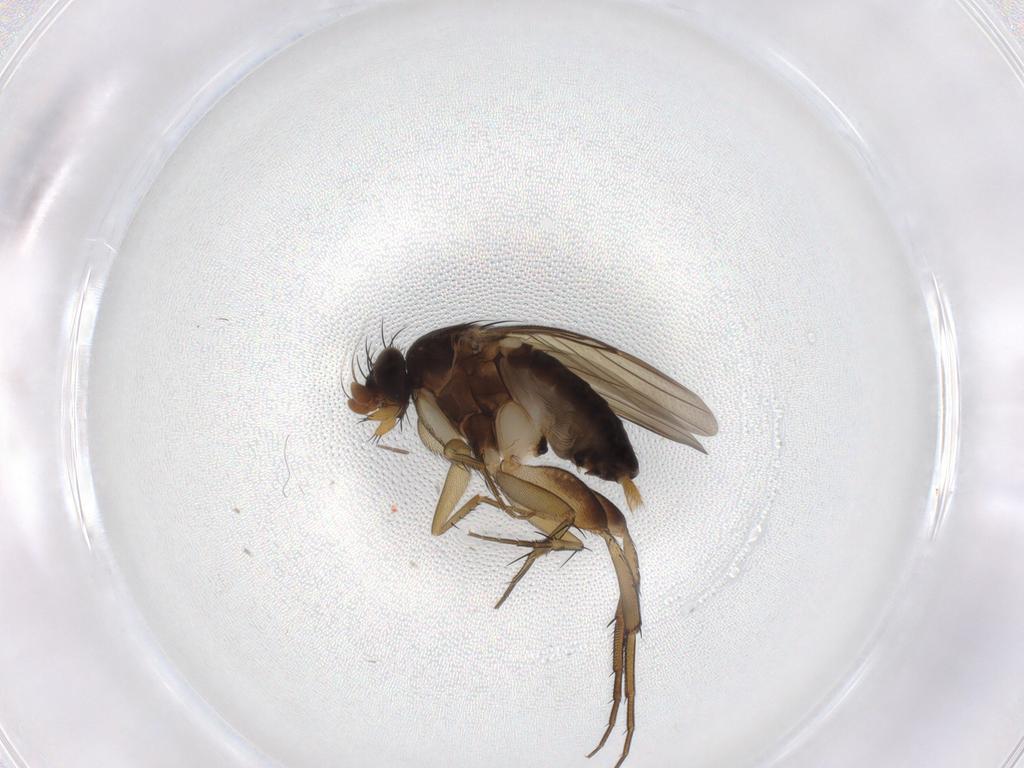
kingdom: Animalia
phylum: Arthropoda
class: Insecta
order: Diptera
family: Phoridae
